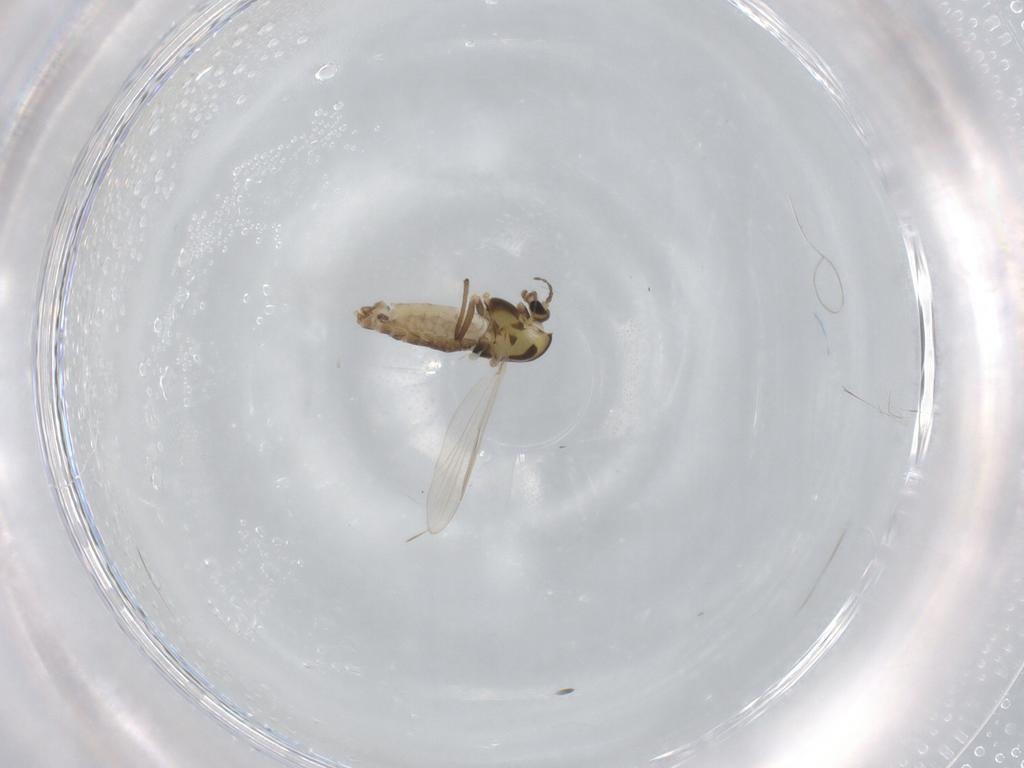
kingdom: Animalia
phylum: Arthropoda
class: Insecta
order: Diptera
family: Chironomidae
